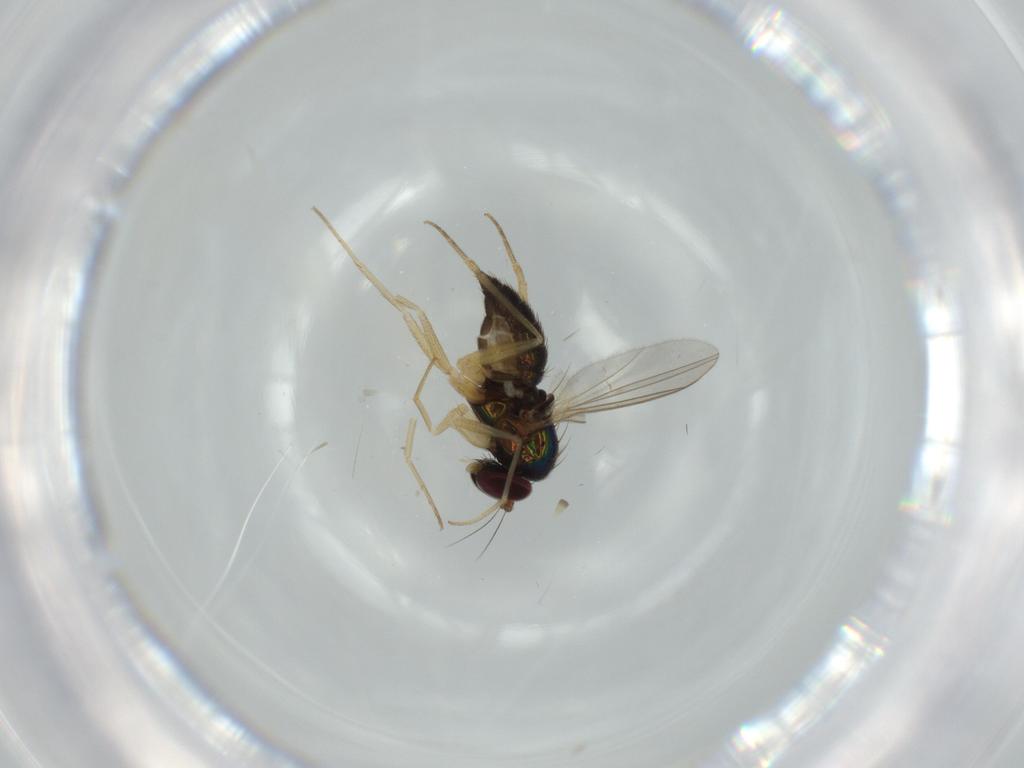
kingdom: Animalia
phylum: Arthropoda
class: Insecta
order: Diptera
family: Dolichopodidae
